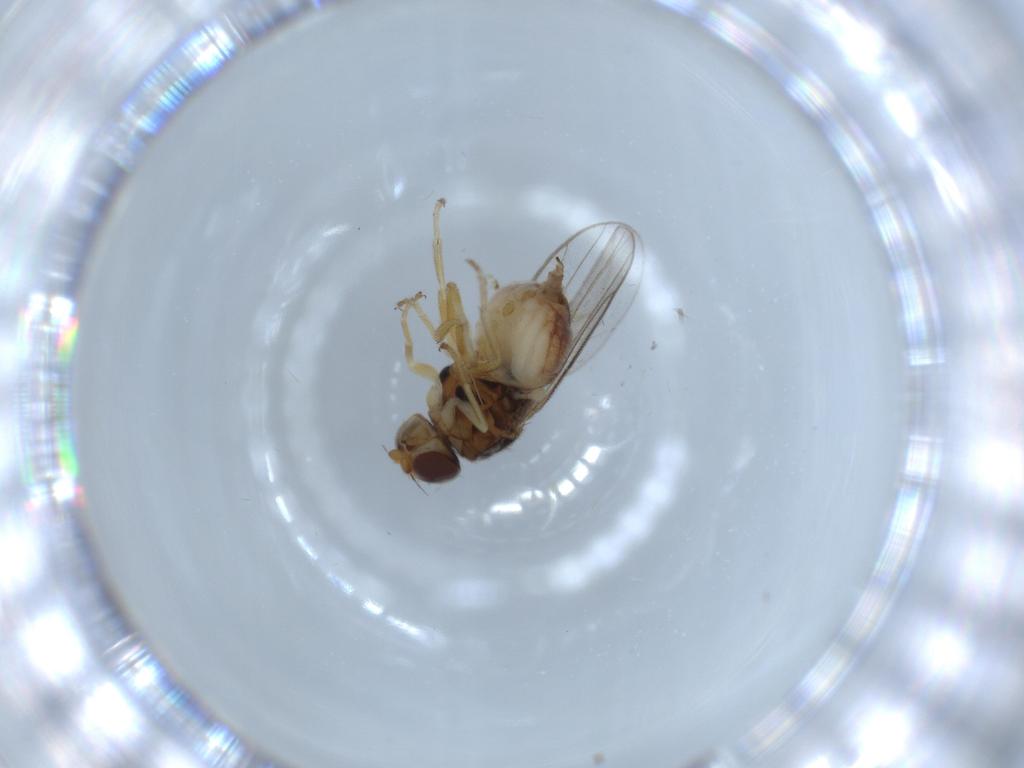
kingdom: Animalia
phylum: Arthropoda
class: Insecta
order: Diptera
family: Chloropidae
